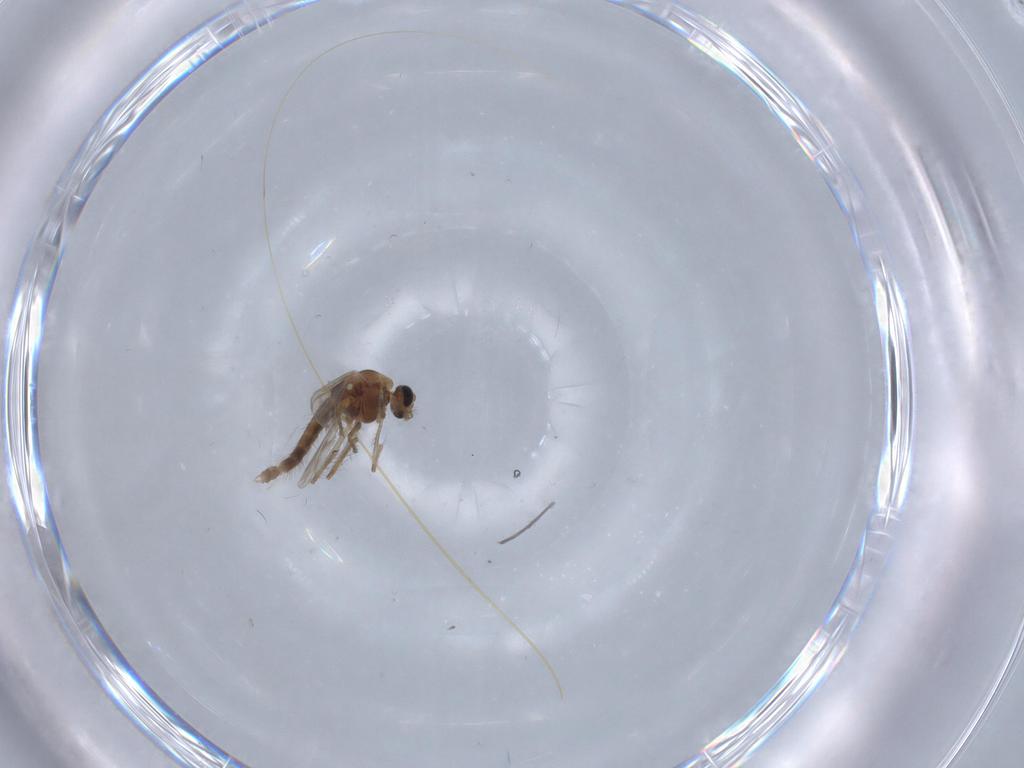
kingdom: Animalia
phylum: Arthropoda
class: Insecta
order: Diptera
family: Chironomidae
